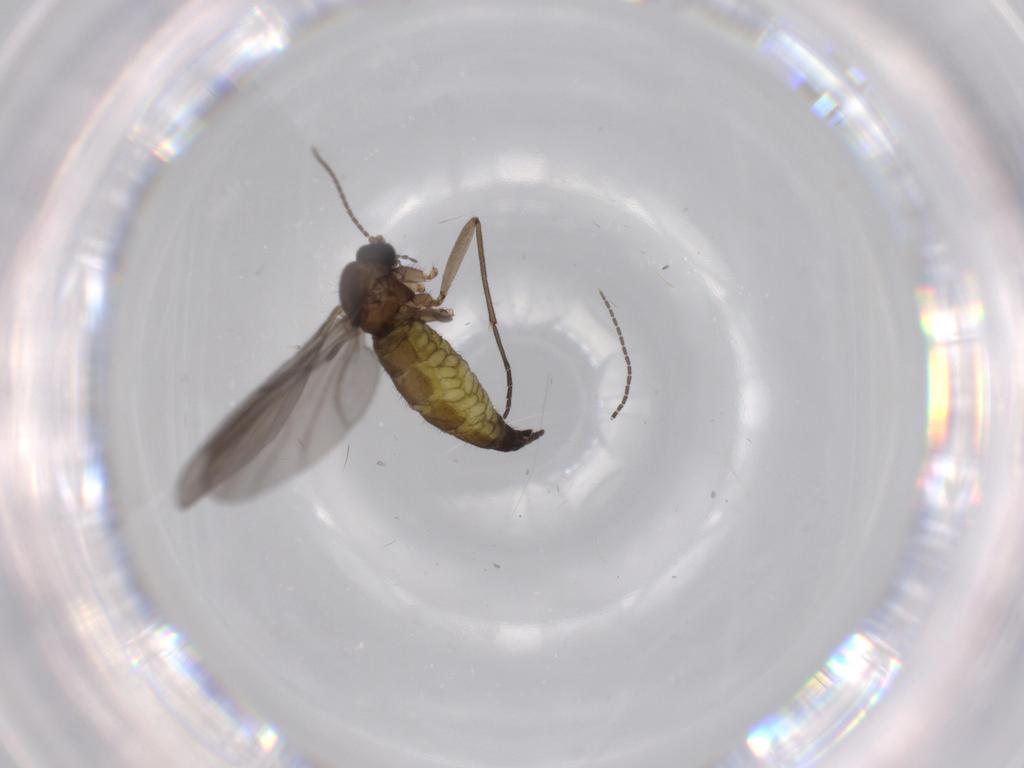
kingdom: Animalia
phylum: Arthropoda
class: Insecta
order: Diptera
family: Sciaridae
